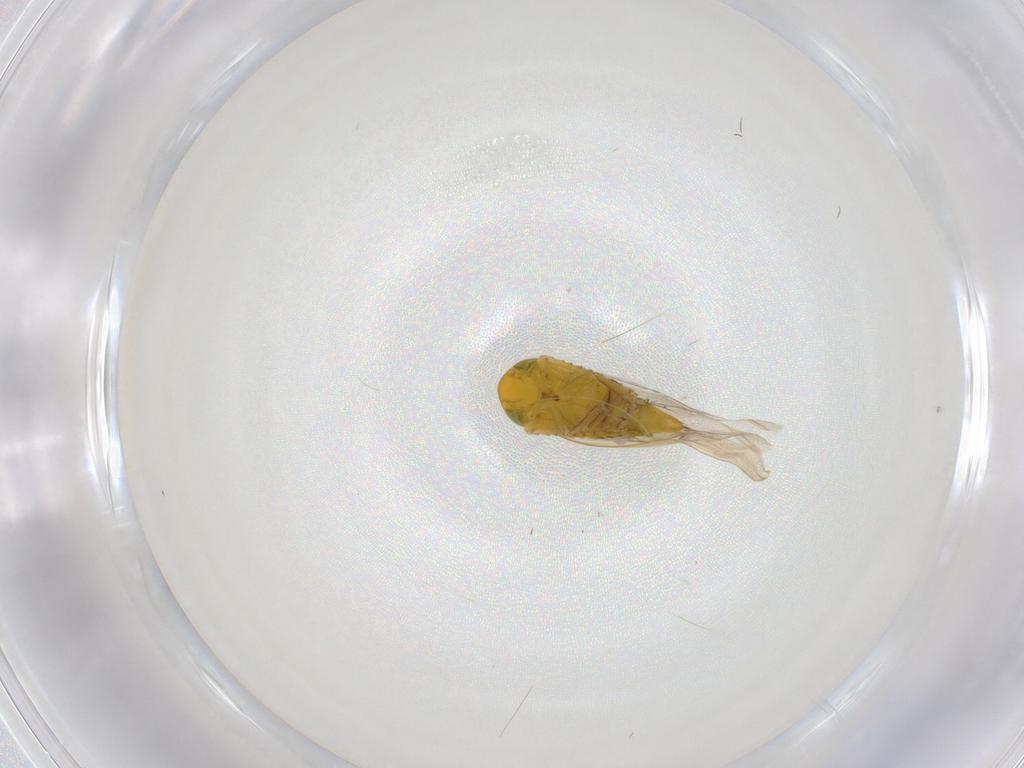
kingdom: Animalia
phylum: Arthropoda
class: Insecta
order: Hemiptera
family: Cicadellidae
